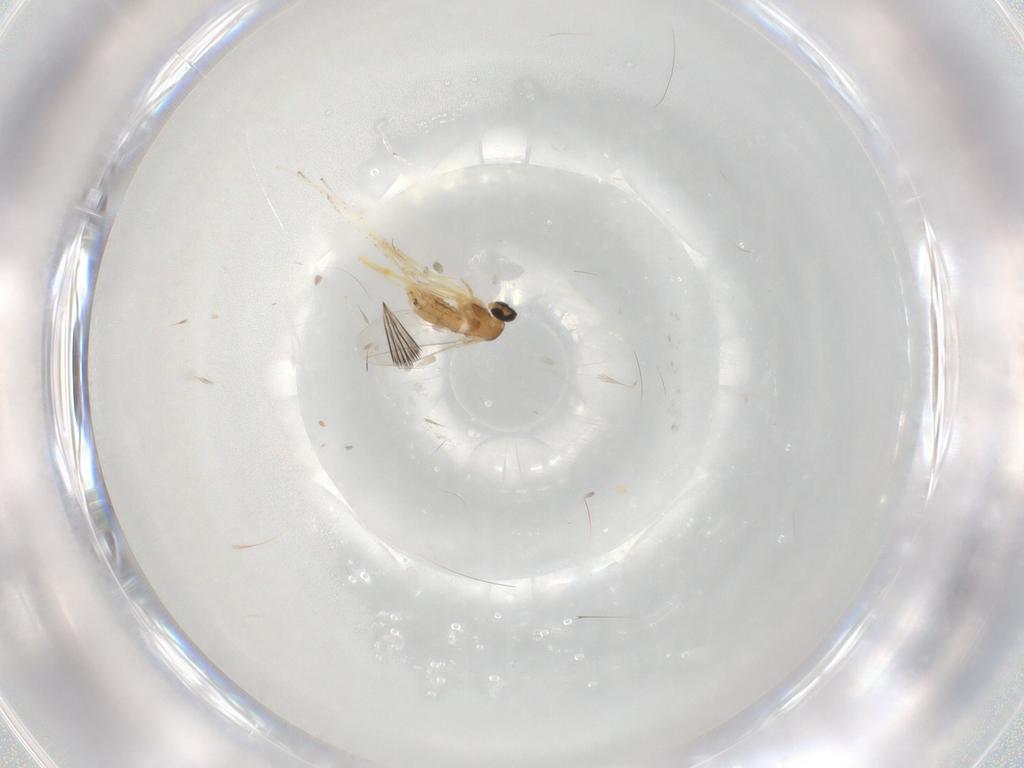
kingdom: Animalia
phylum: Arthropoda
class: Insecta
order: Diptera
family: Cecidomyiidae
